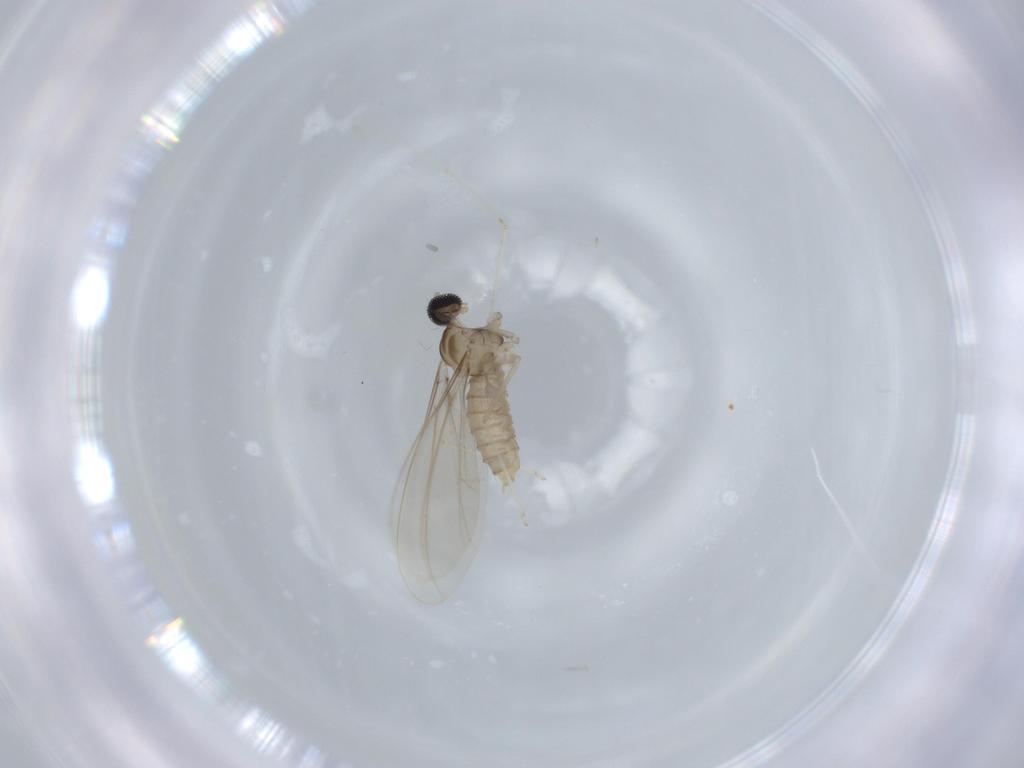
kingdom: Animalia
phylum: Arthropoda
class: Insecta
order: Diptera
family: Cecidomyiidae
